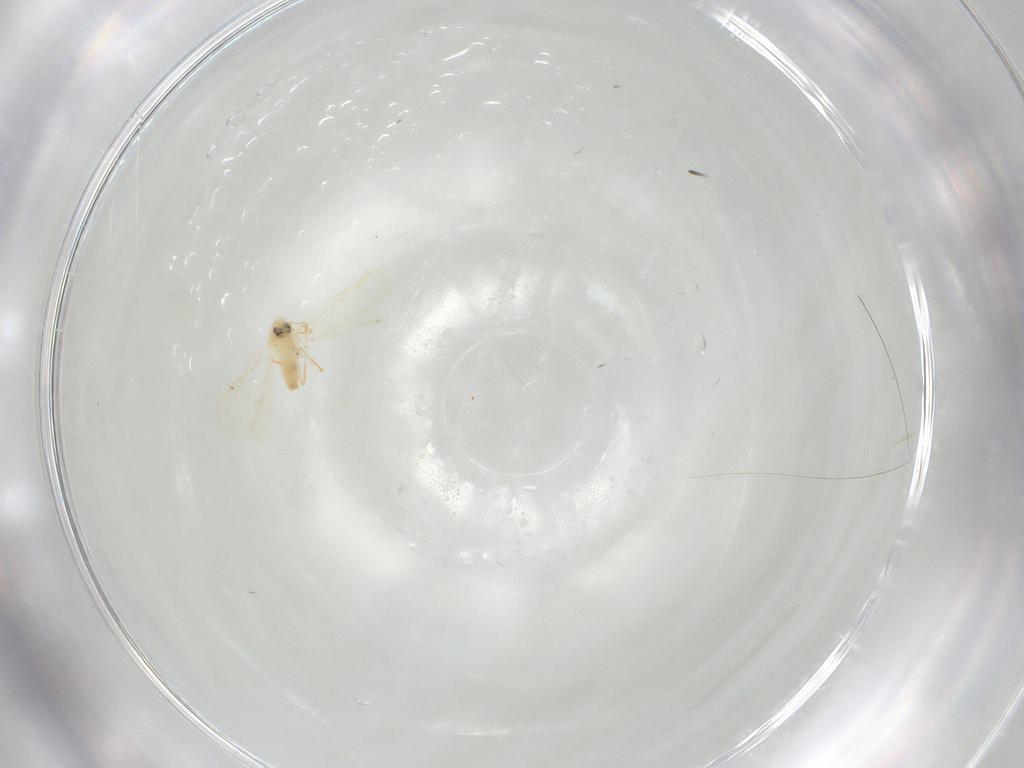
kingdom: Animalia
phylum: Arthropoda
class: Insecta
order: Hemiptera
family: Aleyrodidae
